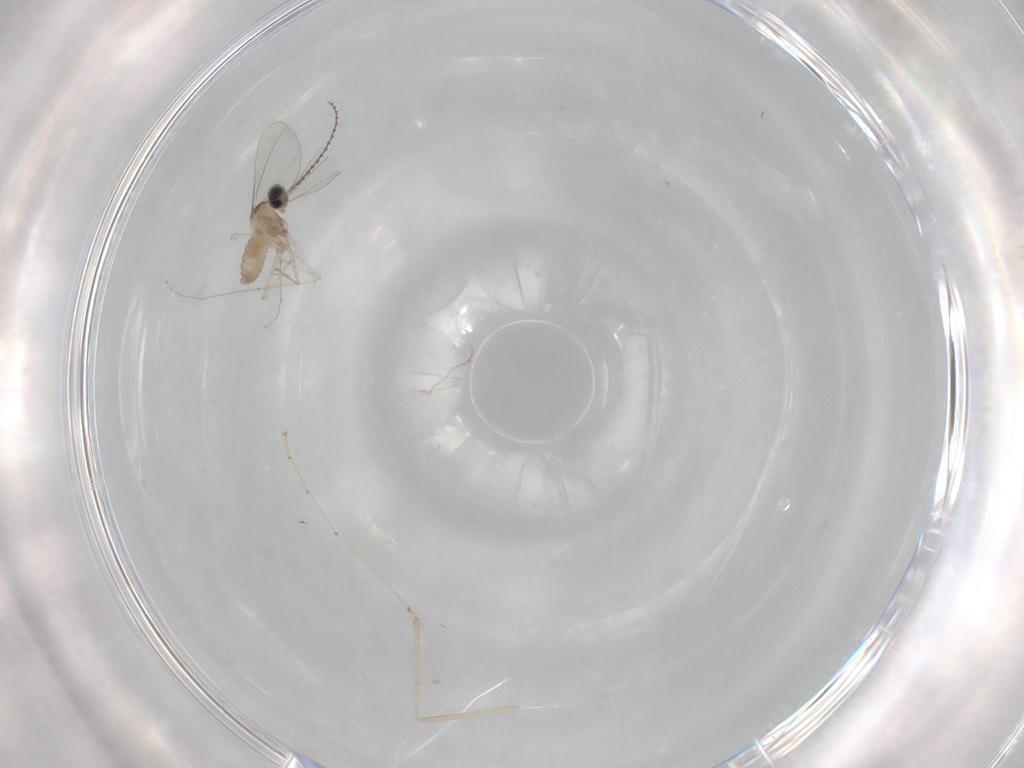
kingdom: Animalia
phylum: Arthropoda
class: Insecta
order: Diptera
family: Cecidomyiidae
